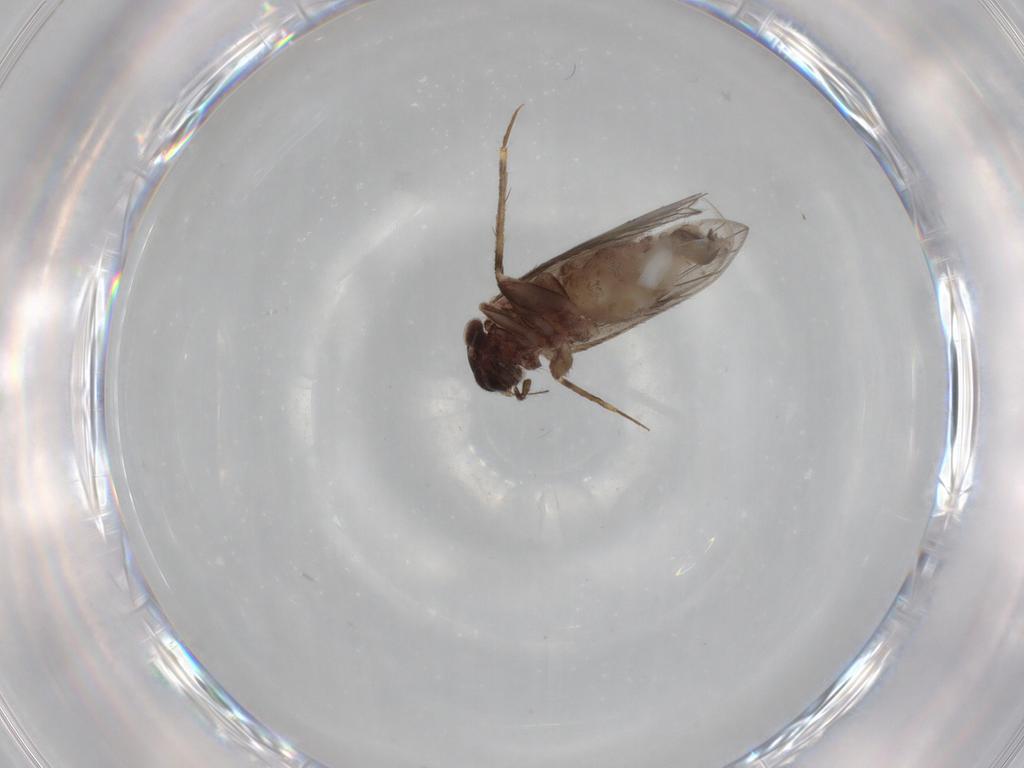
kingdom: Animalia
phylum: Arthropoda
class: Insecta
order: Psocodea
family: Lepidopsocidae
